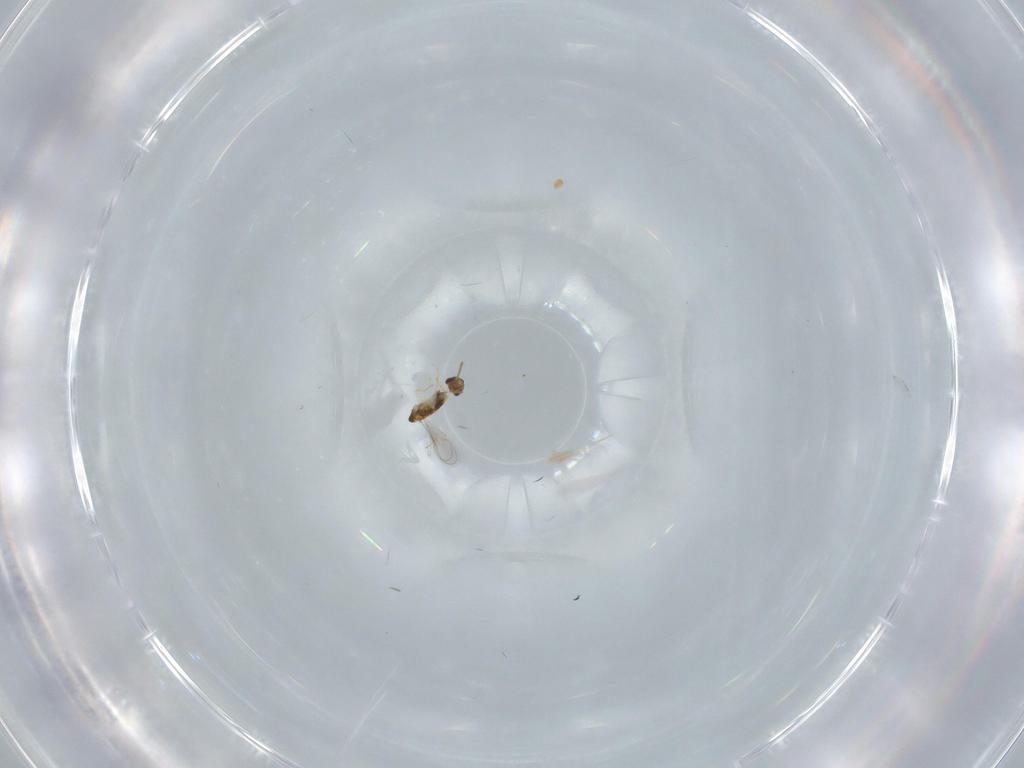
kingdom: Animalia
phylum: Arthropoda
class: Insecta
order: Hymenoptera
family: Aphelinidae
